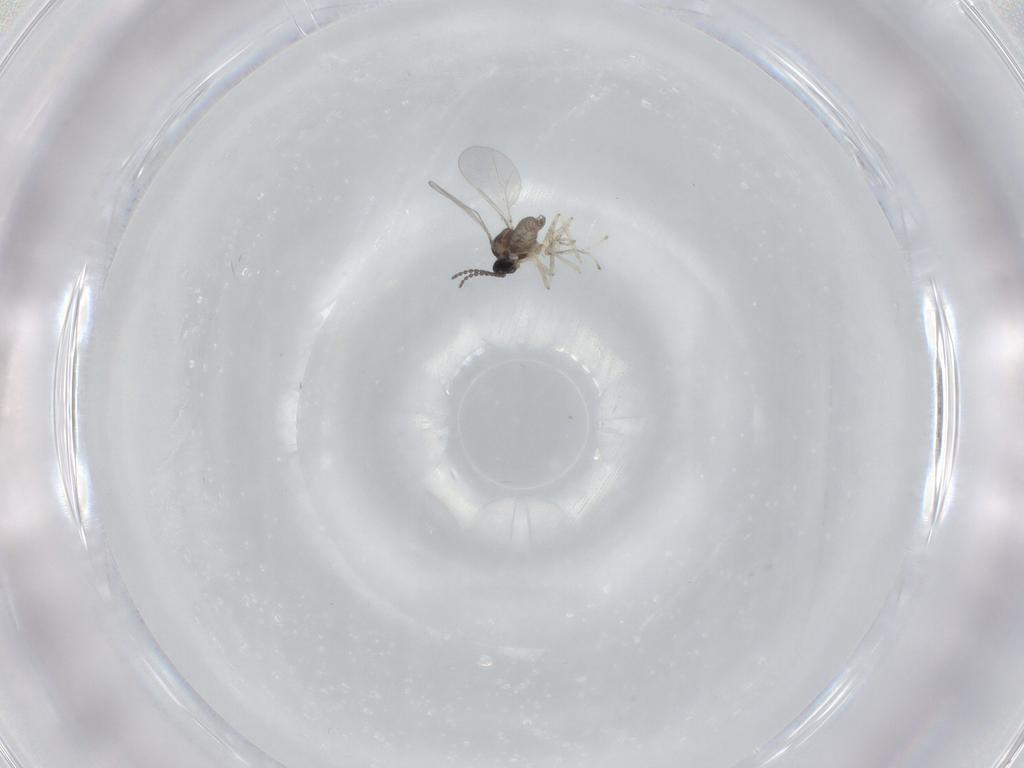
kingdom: Animalia
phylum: Arthropoda
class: Insecta
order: Diptera
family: Cecidomyiidae
